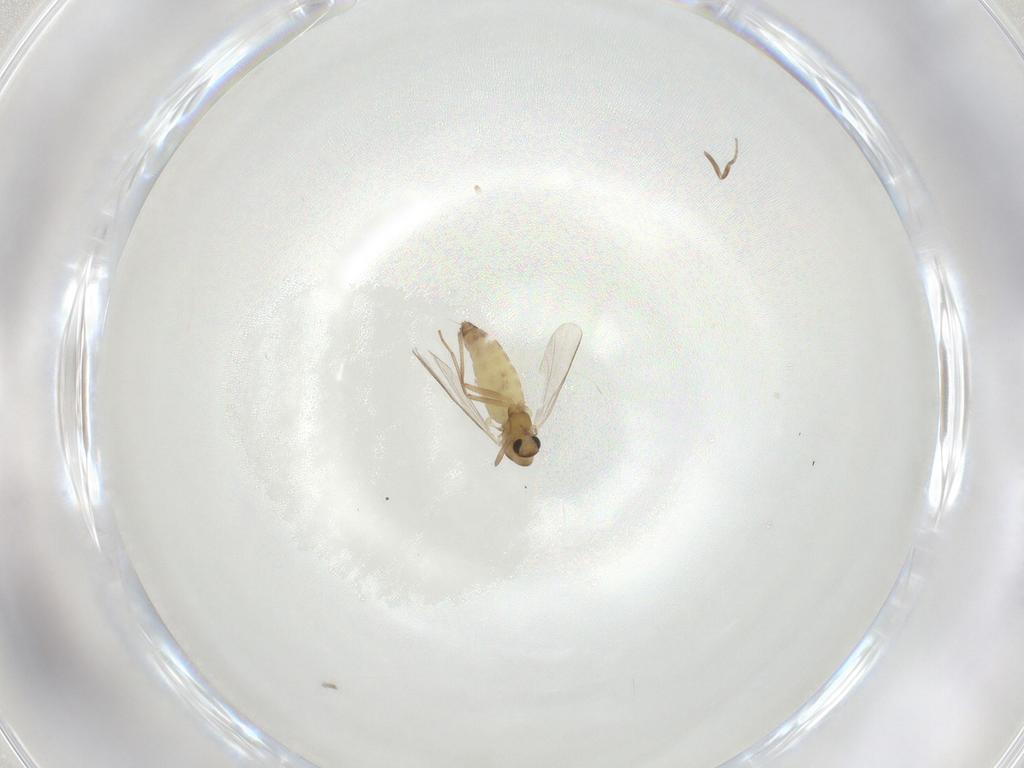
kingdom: Animalia
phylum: Arthropoda
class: Insecta
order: Diptera
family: Chironomidae
